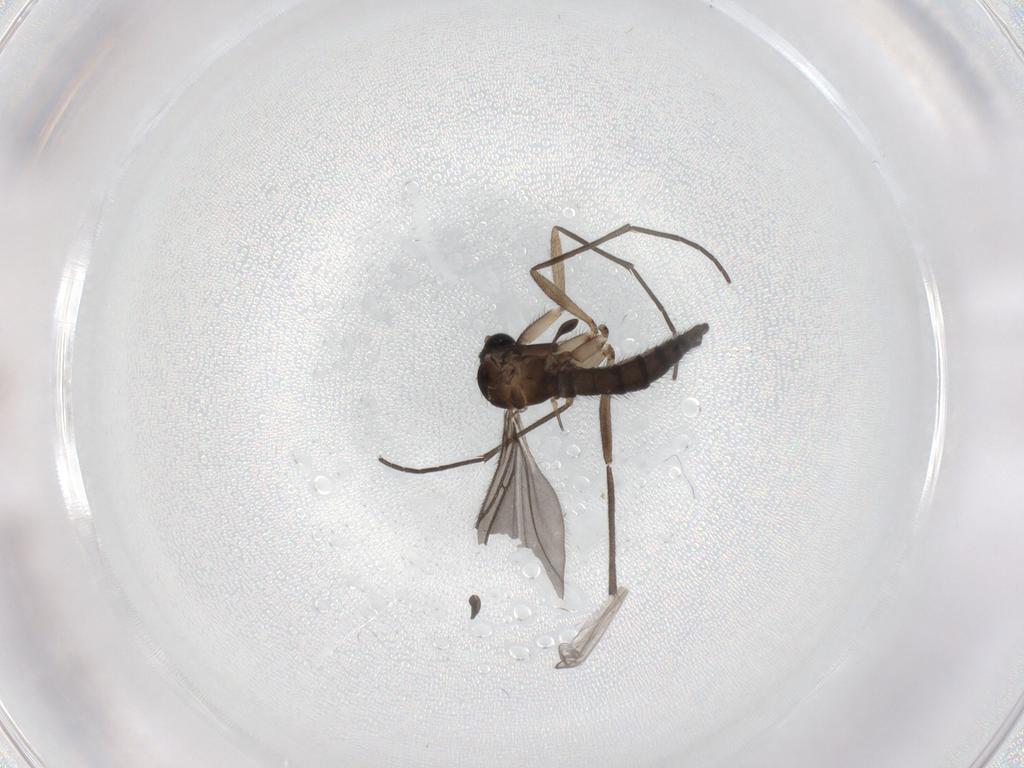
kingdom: Animalia
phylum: Arthropoda
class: Insecta
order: Diptera
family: Sciaridae
